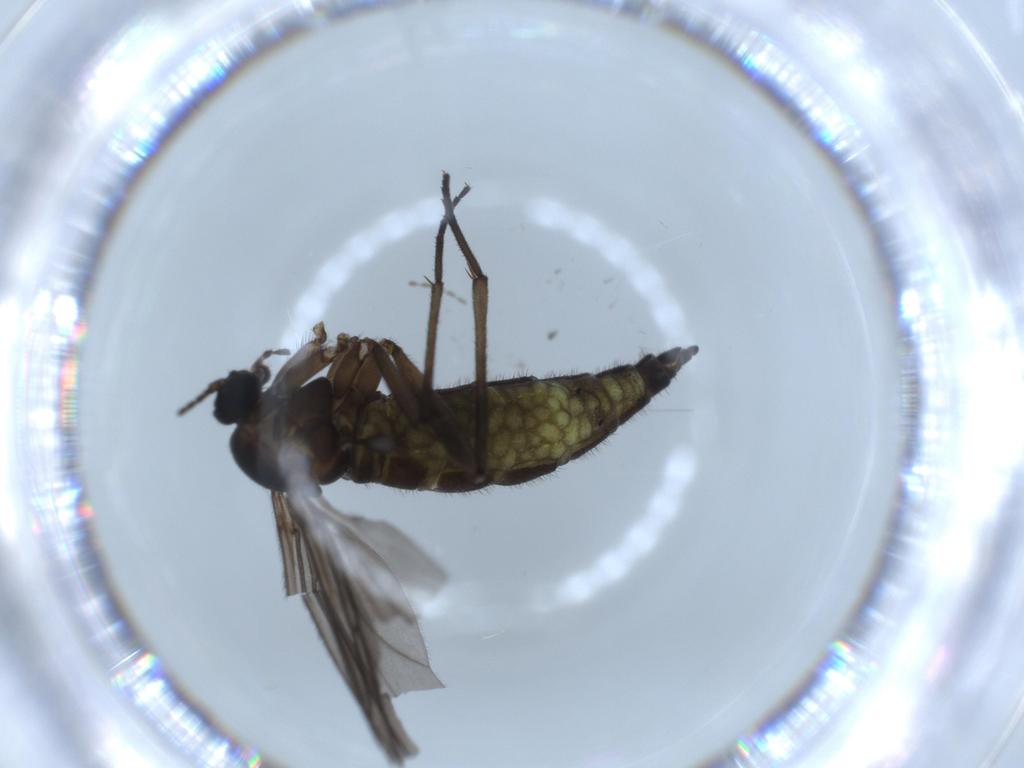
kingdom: Animalia
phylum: Arthropoda
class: Insecta
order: Diptera
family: Sciaridae
